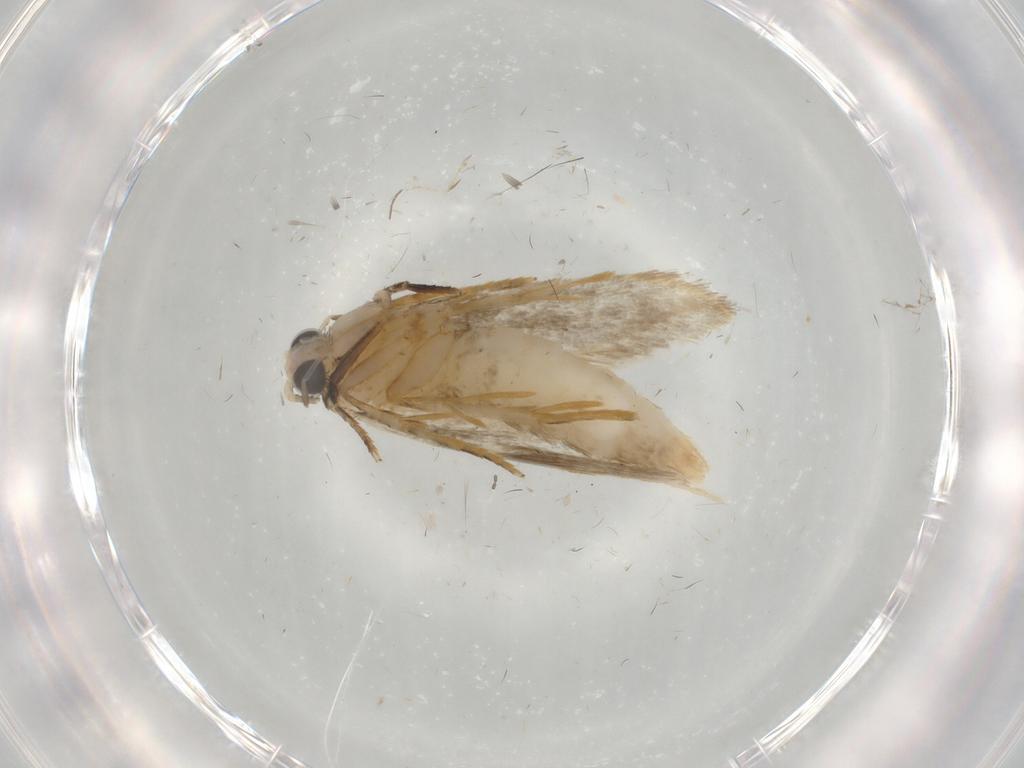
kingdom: Animalia
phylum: Arthropoda
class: Insecta
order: Lepidoptera
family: Tineidae
